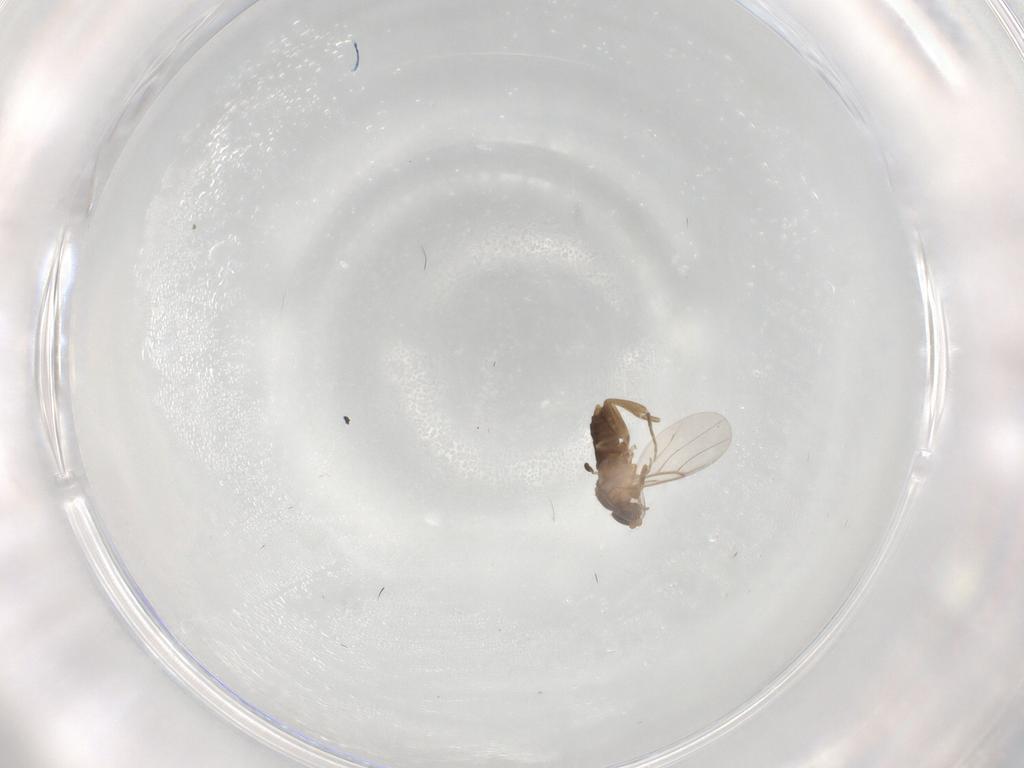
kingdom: Animalia
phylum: Arthropoda
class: Insecta
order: Diptera
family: Phoridae
